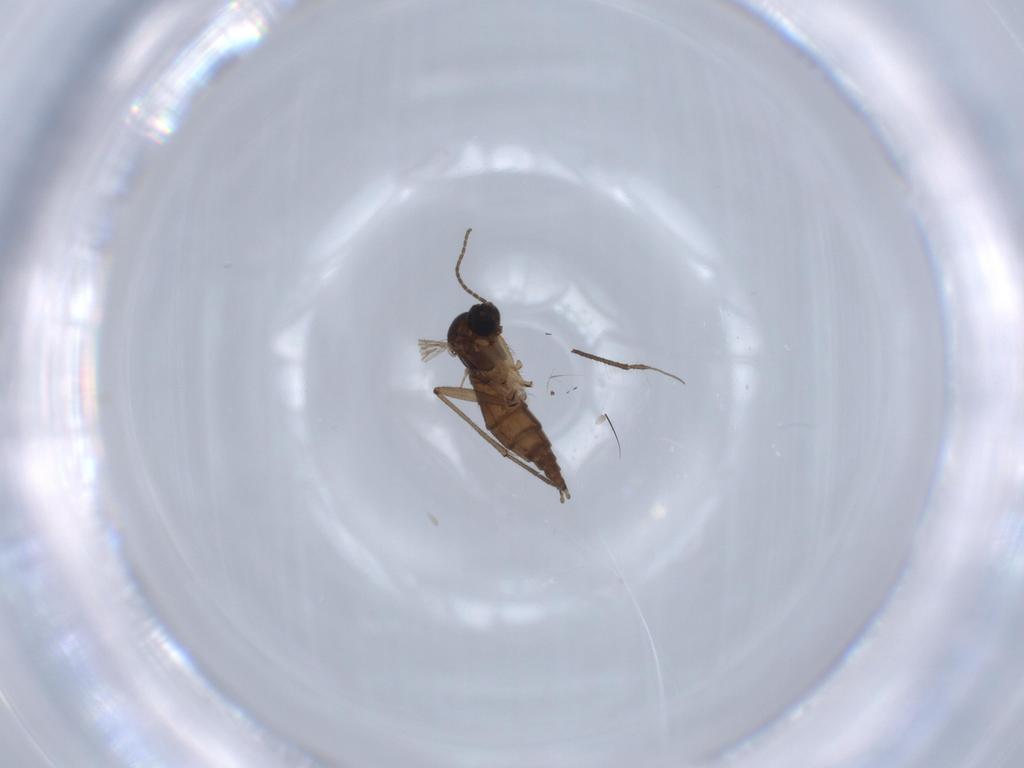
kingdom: Animalia
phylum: Arthropoda
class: Insecta
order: Diptera
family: Sciaridae
